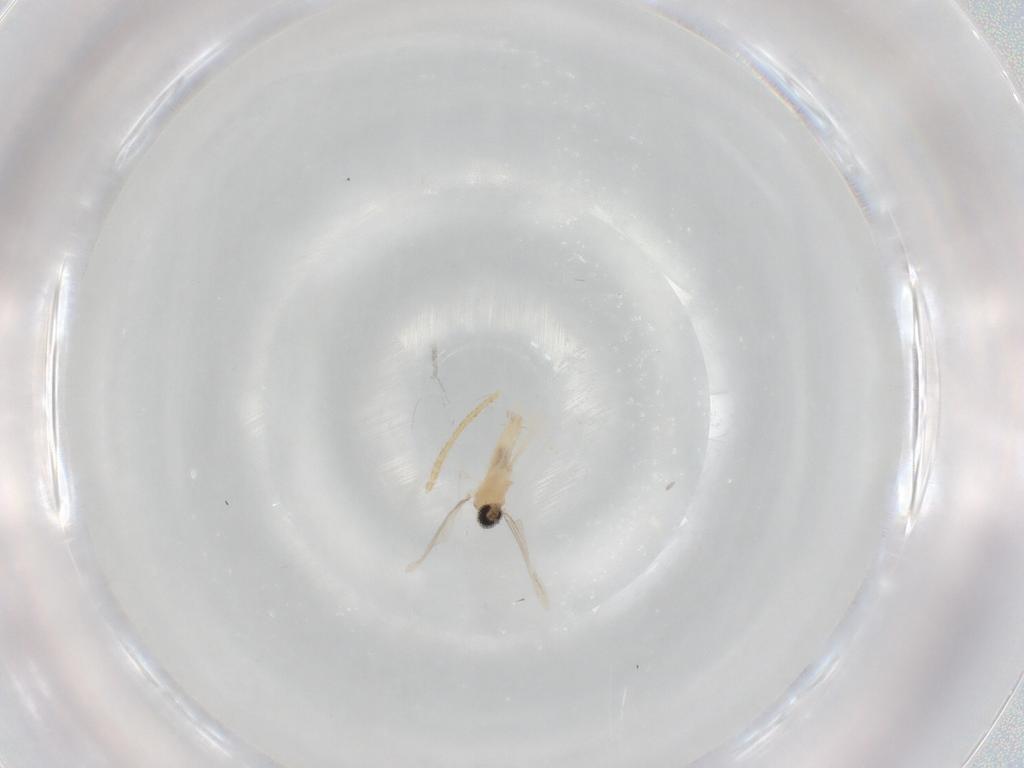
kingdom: Animalia
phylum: Arthropoda
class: Insecta
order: Diptera
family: Cecidomyiidae
